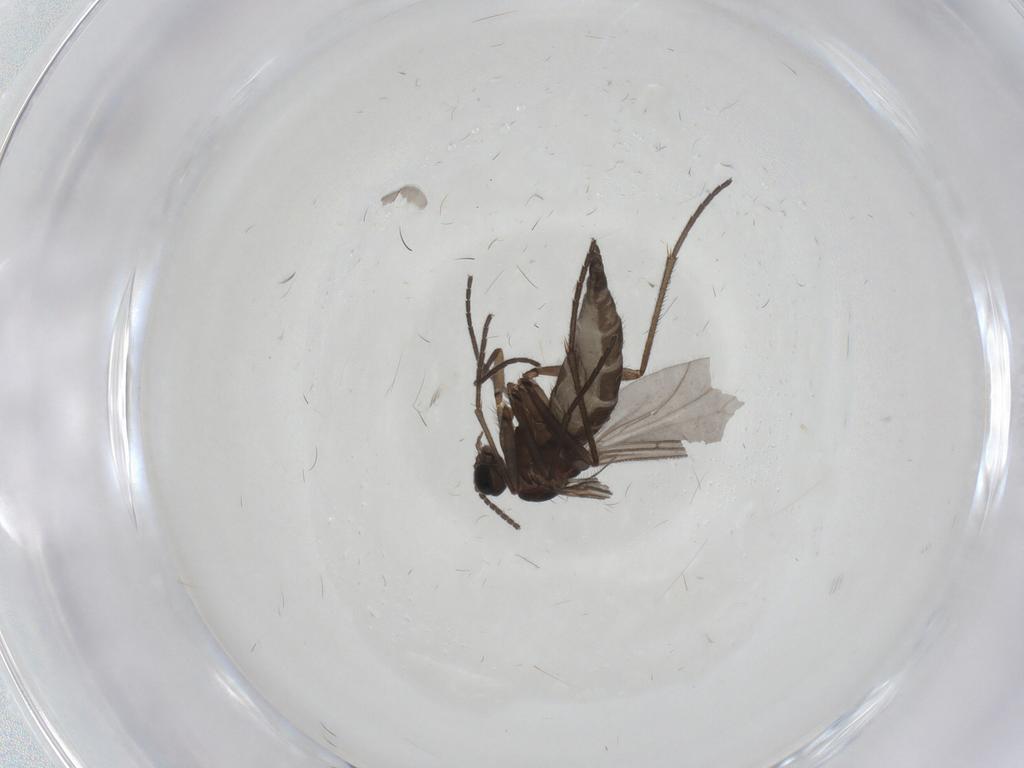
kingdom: Animalia
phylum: Arthropoda
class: Insecta
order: Diptera
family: Sciaridae
